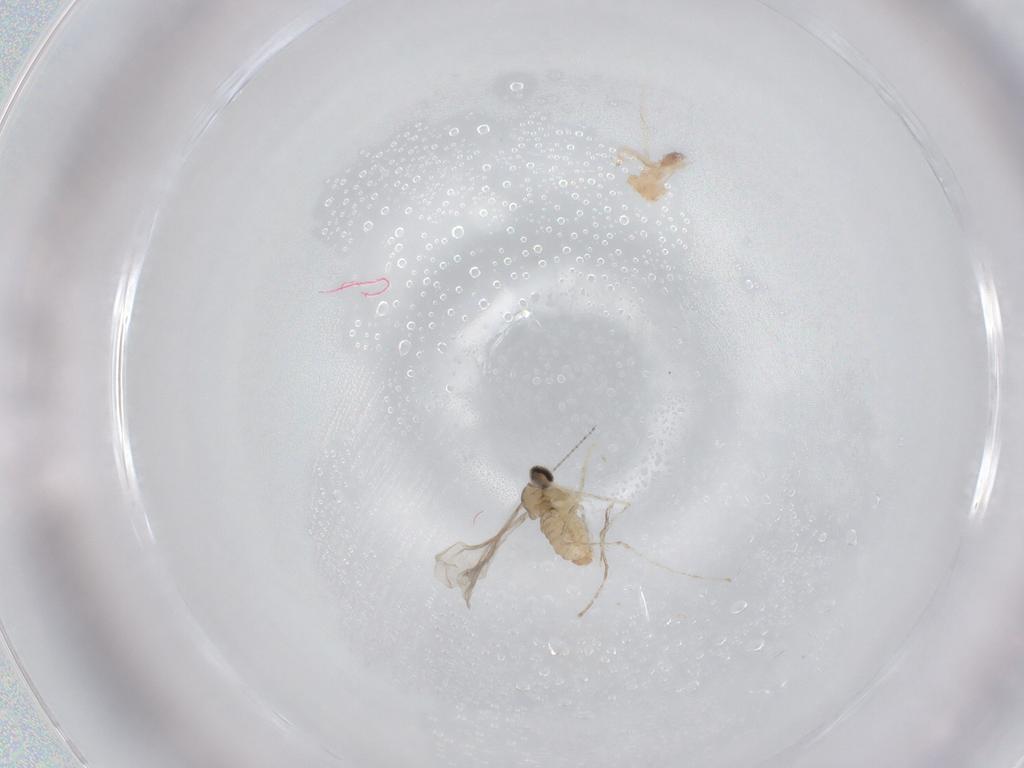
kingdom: Animalia
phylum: Arthropoda
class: Insecta
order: Diptera
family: Cecidomyiidae
